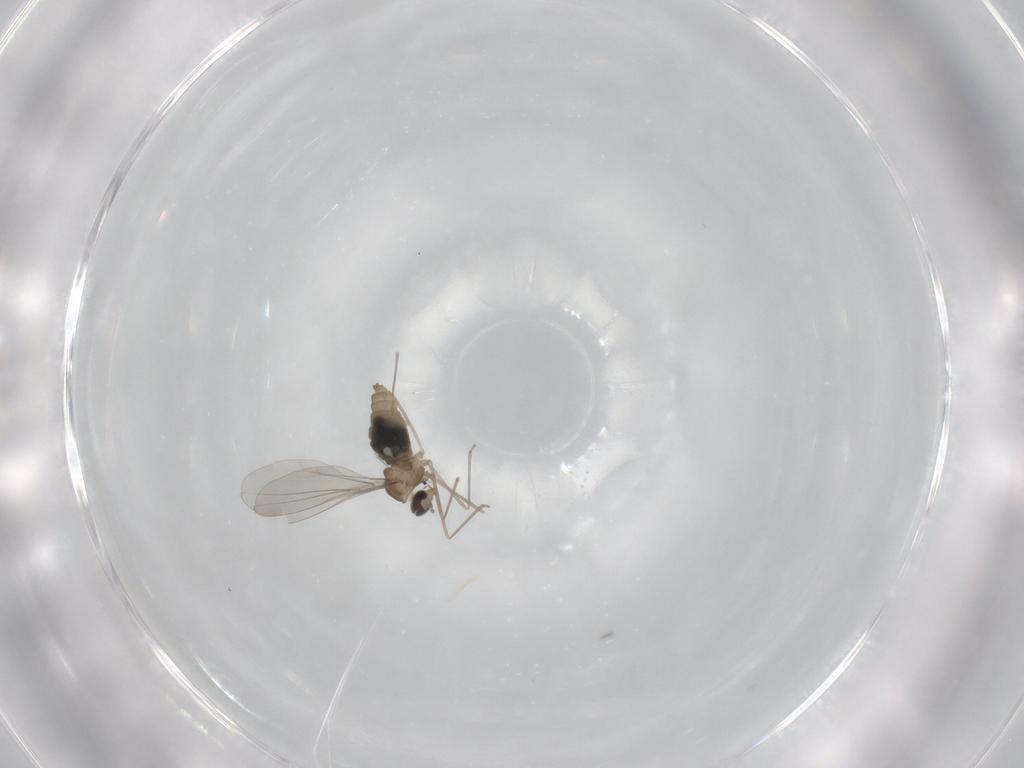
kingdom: Animalia
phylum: Arthropoda
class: Insecta
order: Diptera
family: Cecidomyiidae
